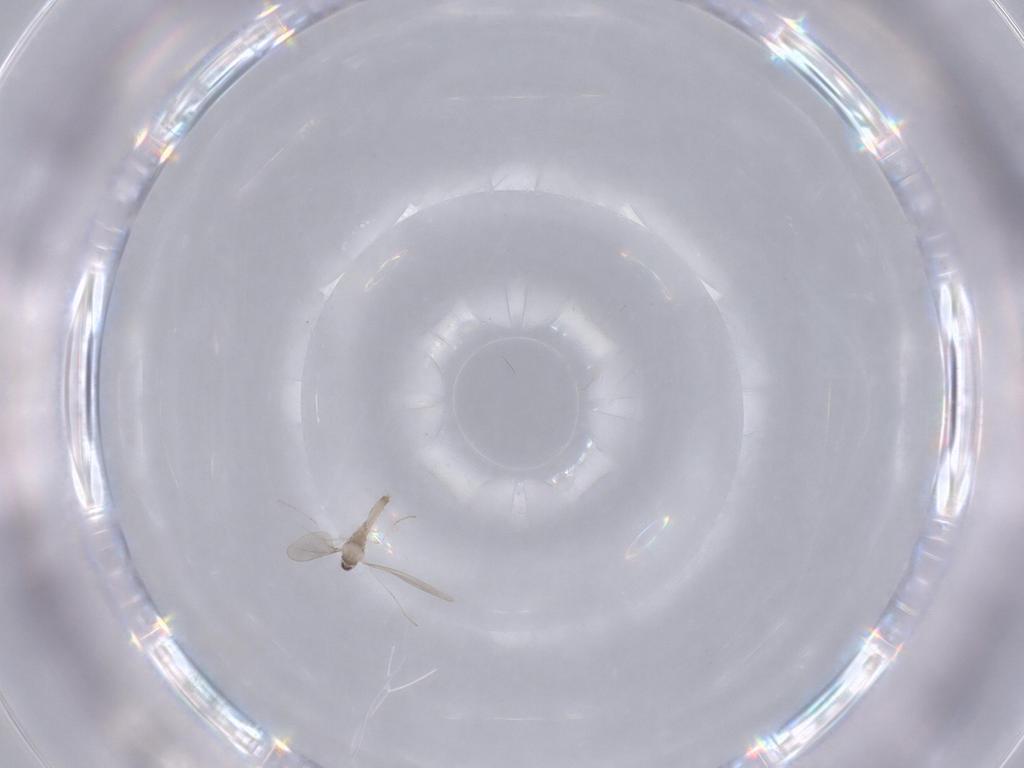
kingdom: Animalia
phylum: Arthropoda
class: Insecta
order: Diptera
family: Cecidomyiidae
